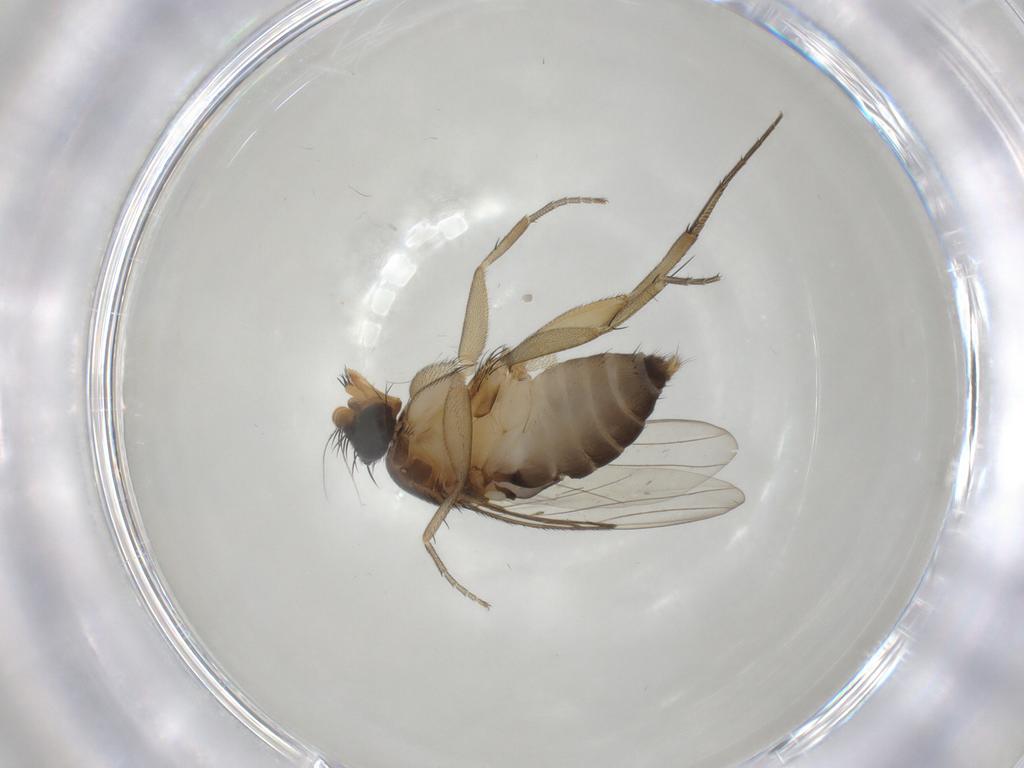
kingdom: Animalia
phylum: Arthropoda
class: Insecta
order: Diptera
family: Phoridae
